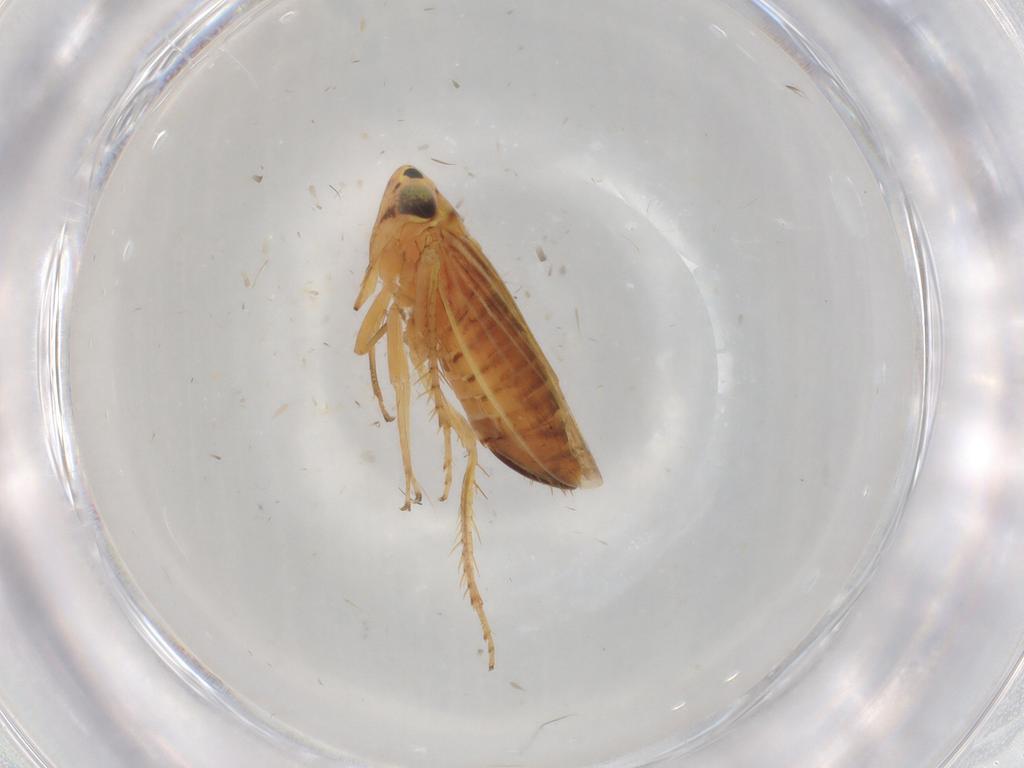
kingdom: Animalia
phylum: Arthropoda
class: Insecta
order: Hemiptera
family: Cicadellidae
